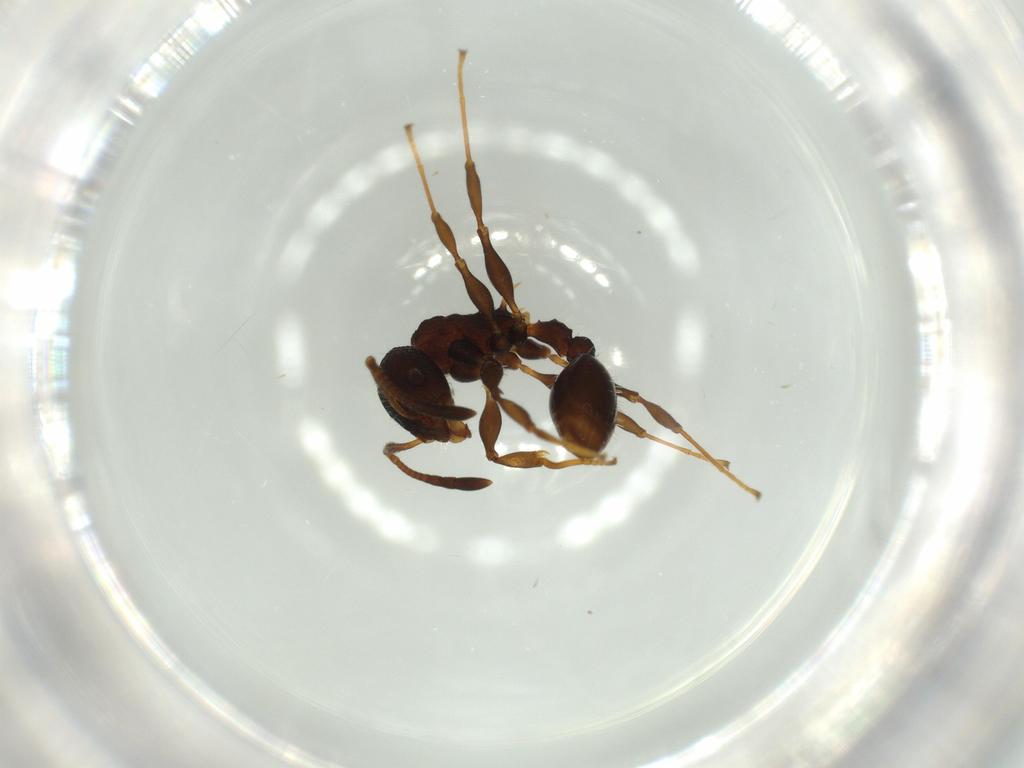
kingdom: Animalia
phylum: Arthropoda
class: Insecta
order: Hymenoptera
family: Formicidae
